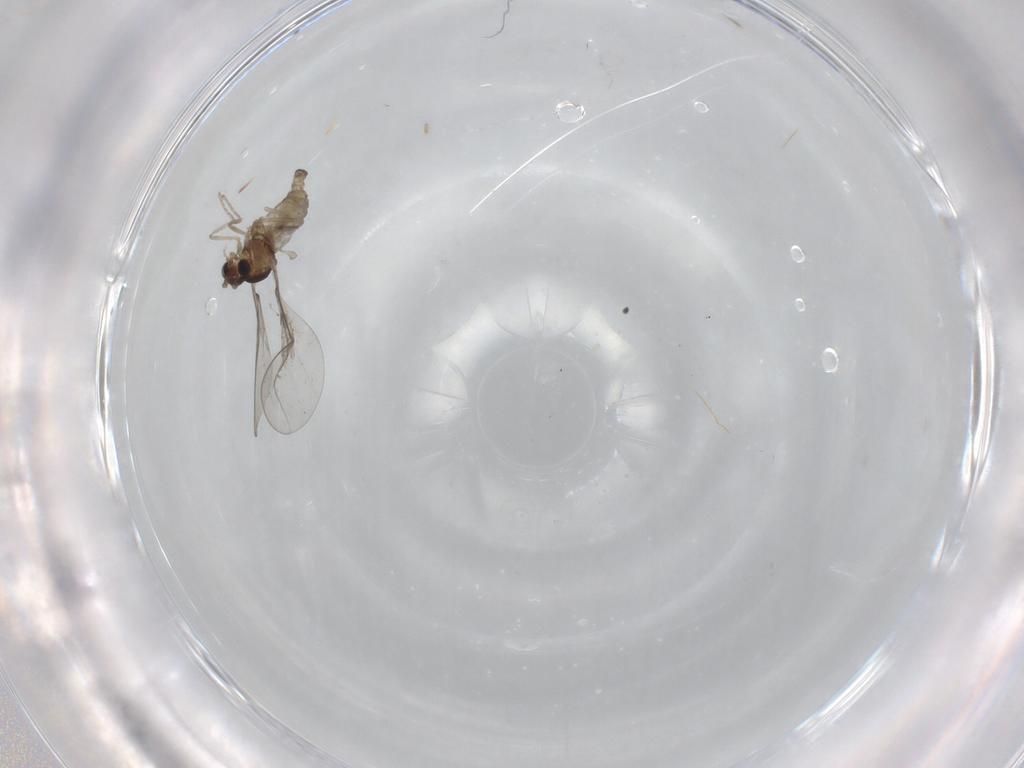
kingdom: Animalia
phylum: Arthropoda
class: Insecta
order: Diptera
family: Cecidomyiidae
